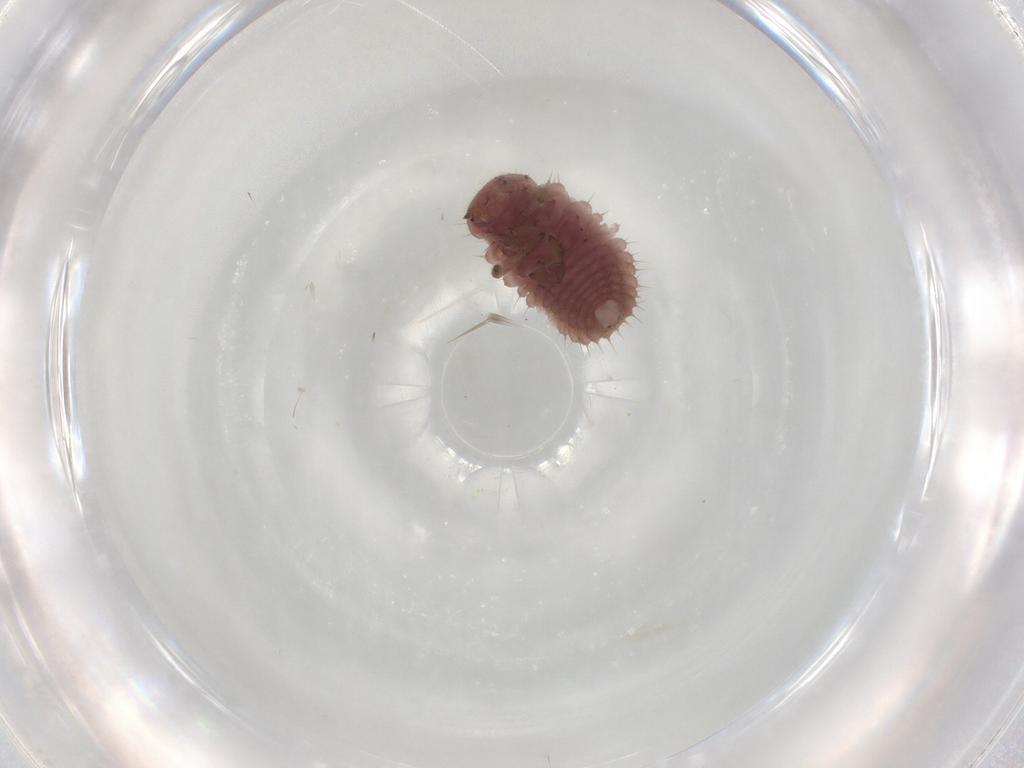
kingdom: Animalia
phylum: Arthropoda
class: Insecta
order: Coleoptera
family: Coccinellidae
